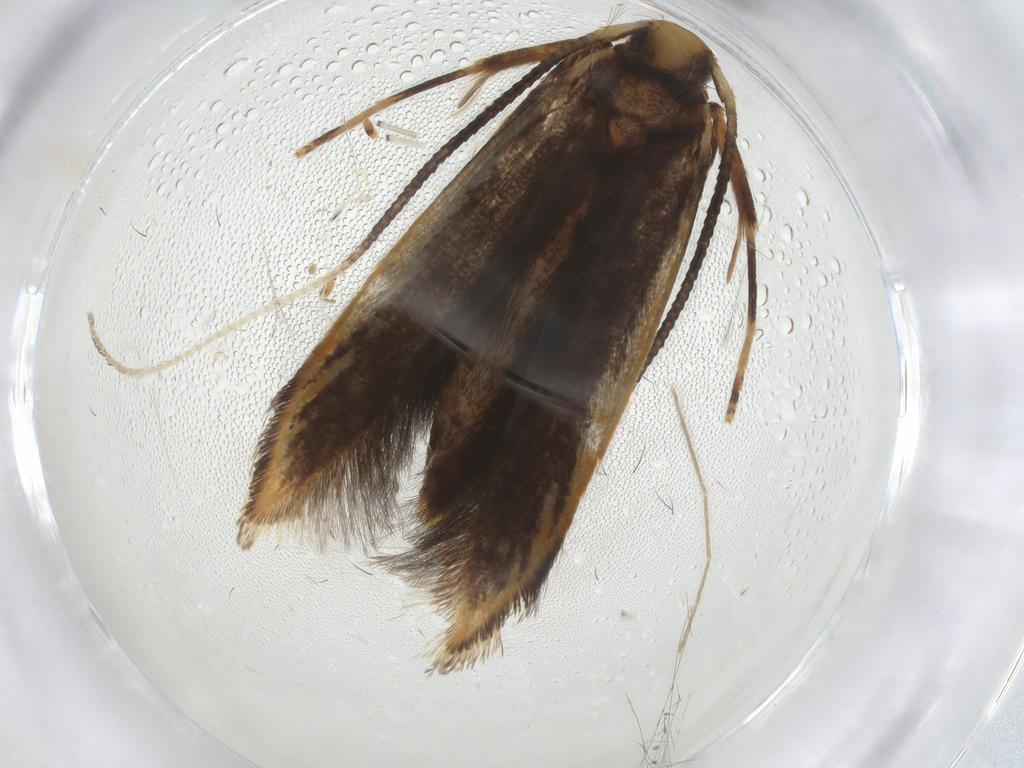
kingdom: Animalia
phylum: Arthropoda
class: Insecta
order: Lepidoptera
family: Pterolonchidae
